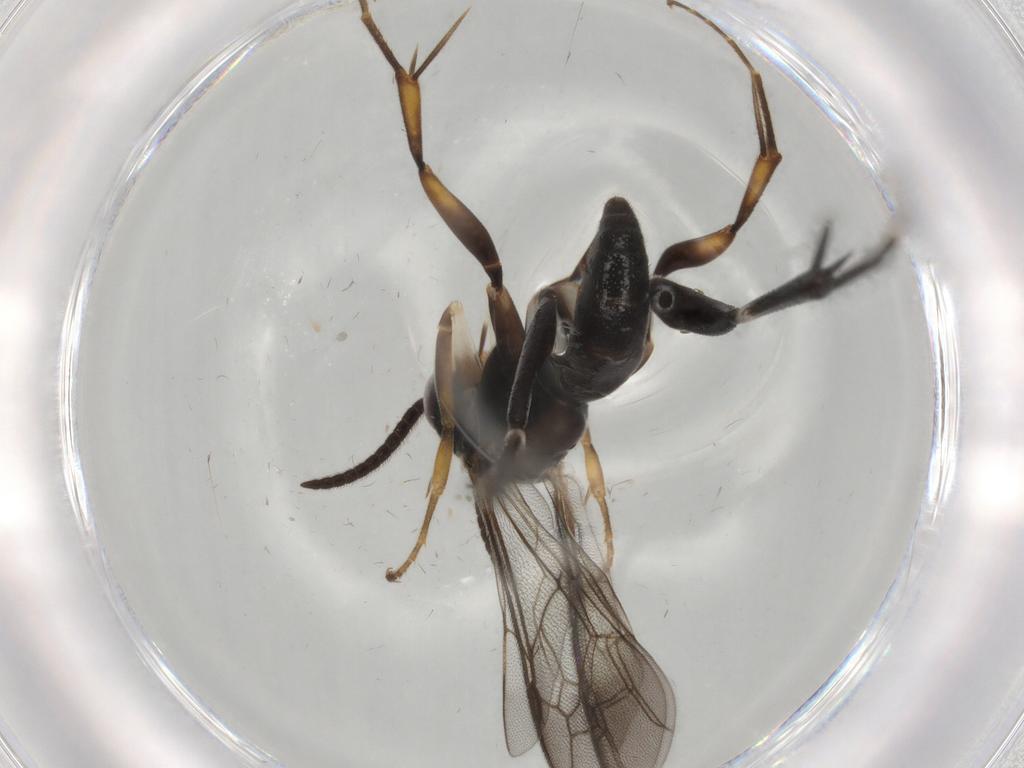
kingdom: Animalia
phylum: Arthropoda
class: Insecta
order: Hymenoptera
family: Pompilidae
